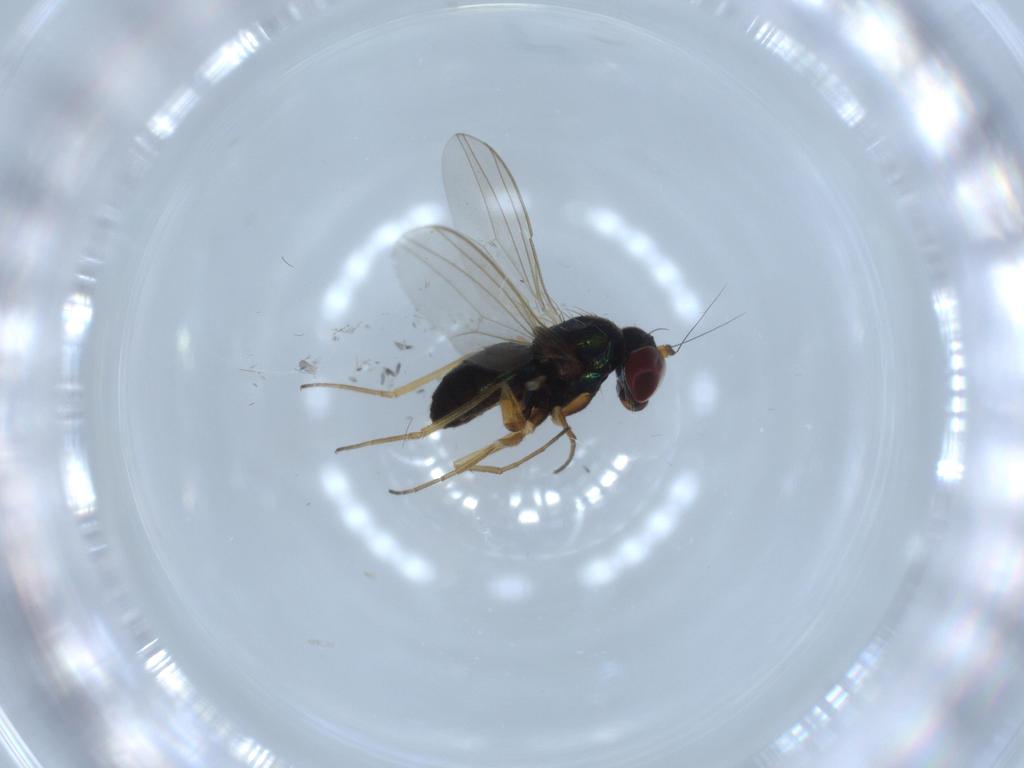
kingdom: Animalia
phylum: Arthropoda
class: Insecta
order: Diptera
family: Dolichopodidae
